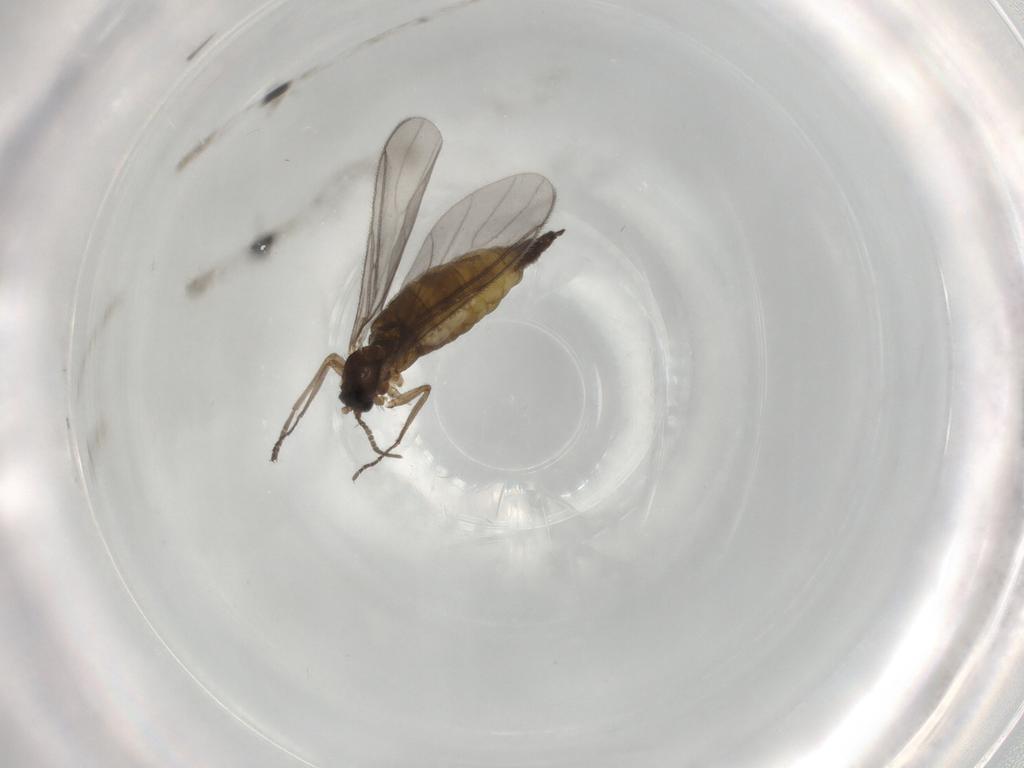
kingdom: Animalia
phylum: Arthropoda
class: Insecta
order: Diptera
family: Sciaridae
